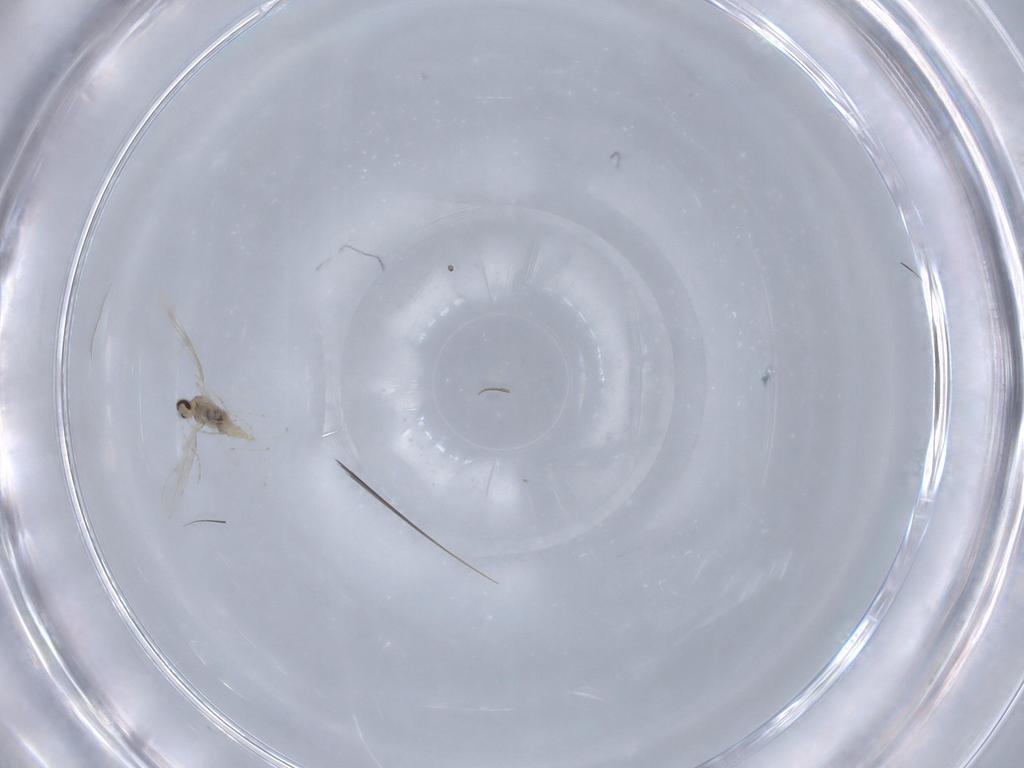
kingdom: Animalia
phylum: Arthropoda
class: Insecta
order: Diptera
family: Cecidomyiidae
